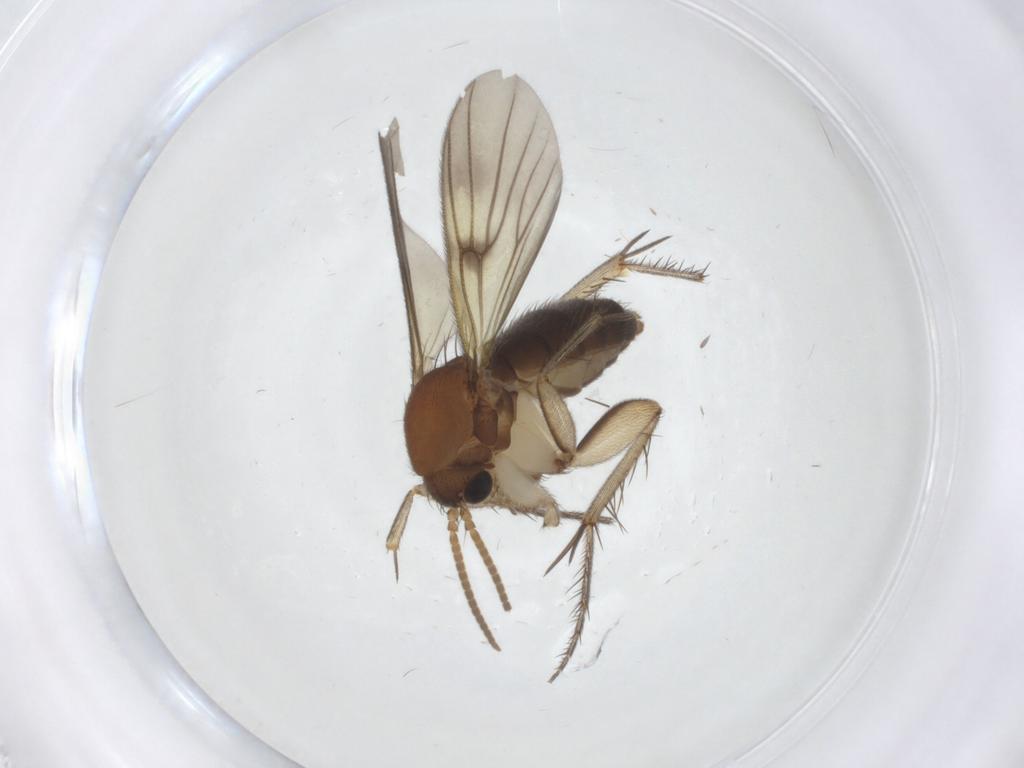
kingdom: Animalia
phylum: Arthropoda
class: Insecta
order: Diptera
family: Mycetophilidae
